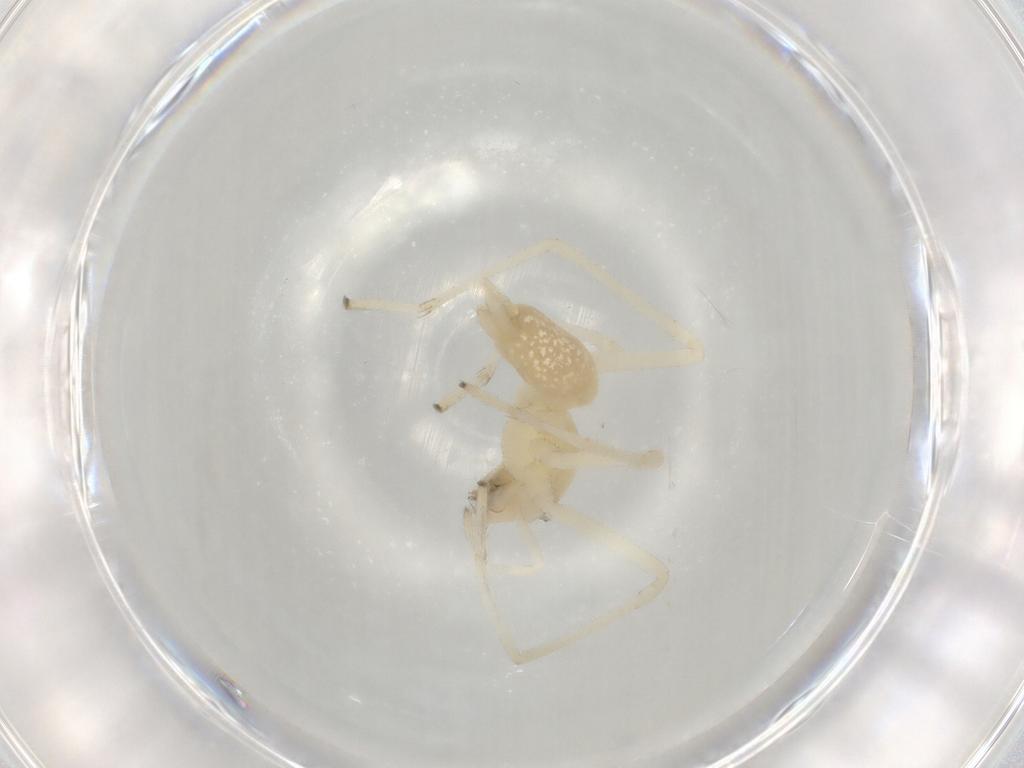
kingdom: Animalia
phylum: Arthropoda
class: Arachnida
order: Araneae
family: Cheiracanthiidae
